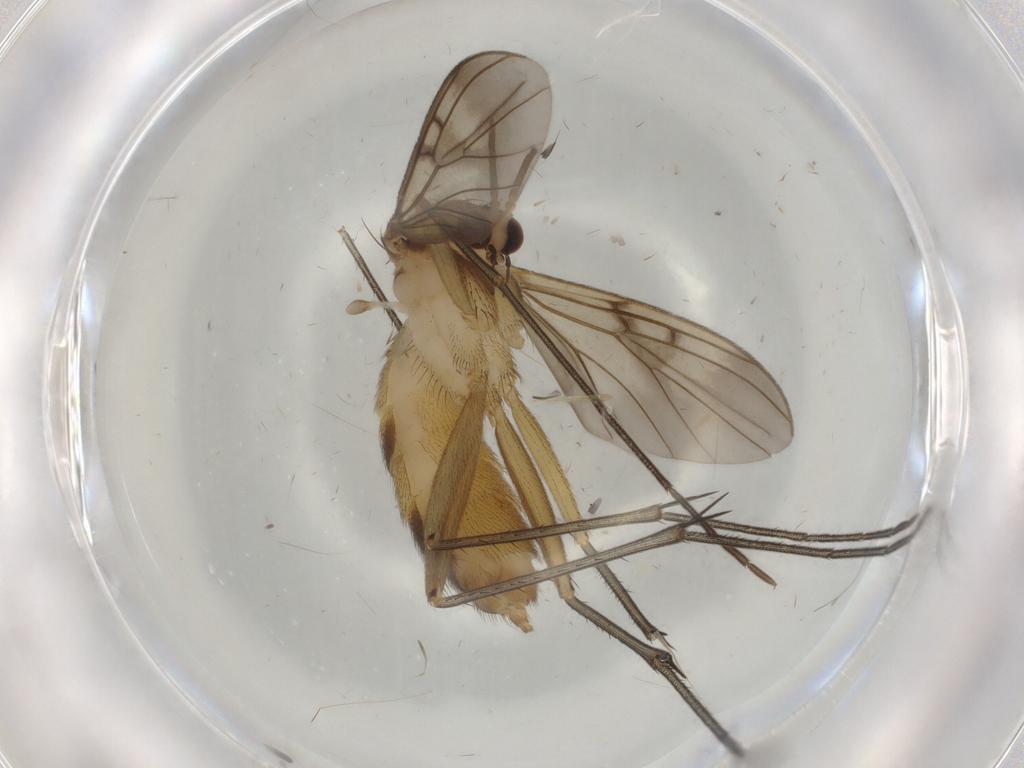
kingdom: Animalia
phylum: Arthropoda
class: Insecta
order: Diptera
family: Mycetophilidae
